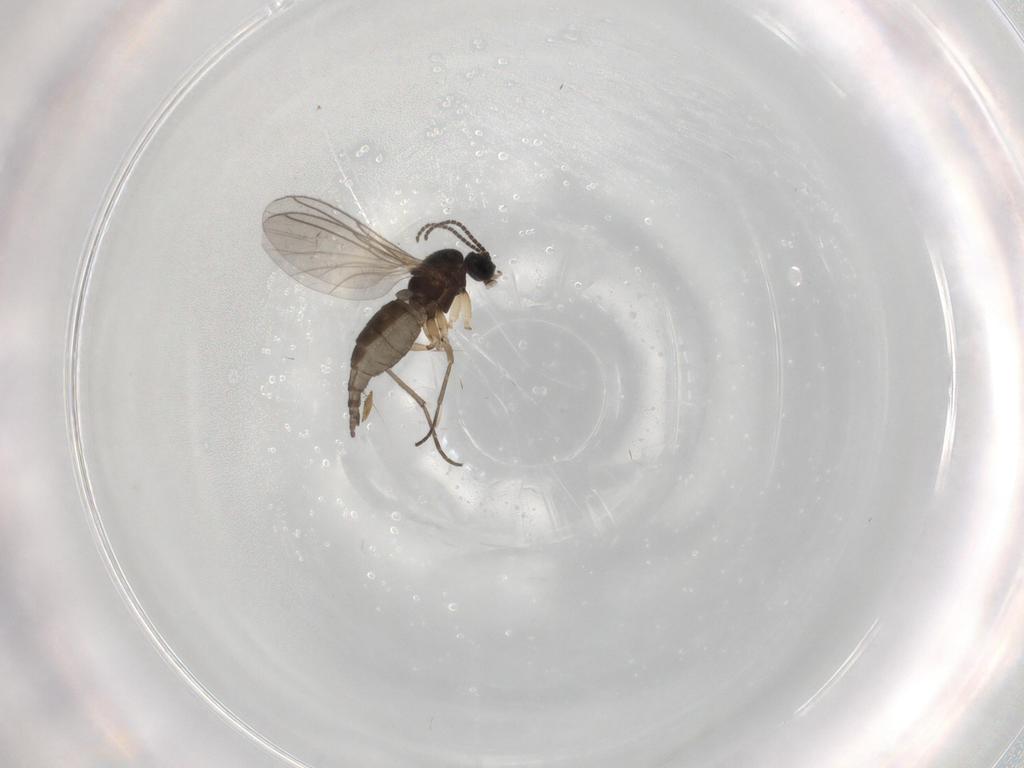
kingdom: Animalia
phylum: Arthropoda
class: Insecta
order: Diptera
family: Sciaridae
